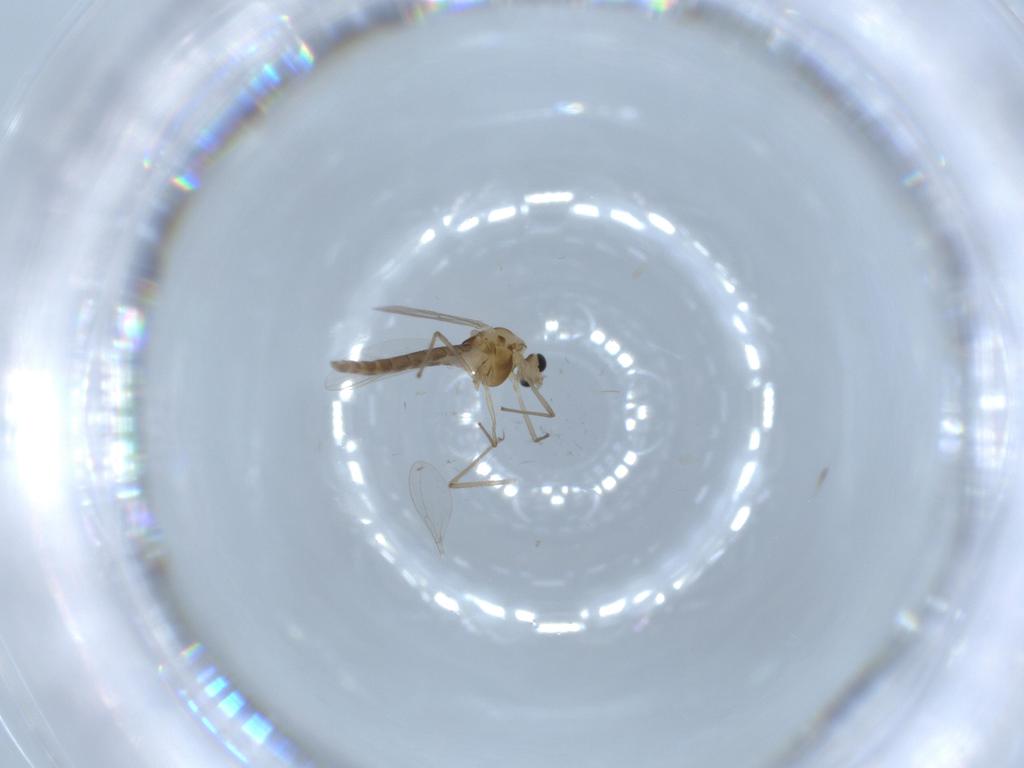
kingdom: Animalia
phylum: Arthropoda
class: Insecta
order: Diptera
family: Chironomidae
